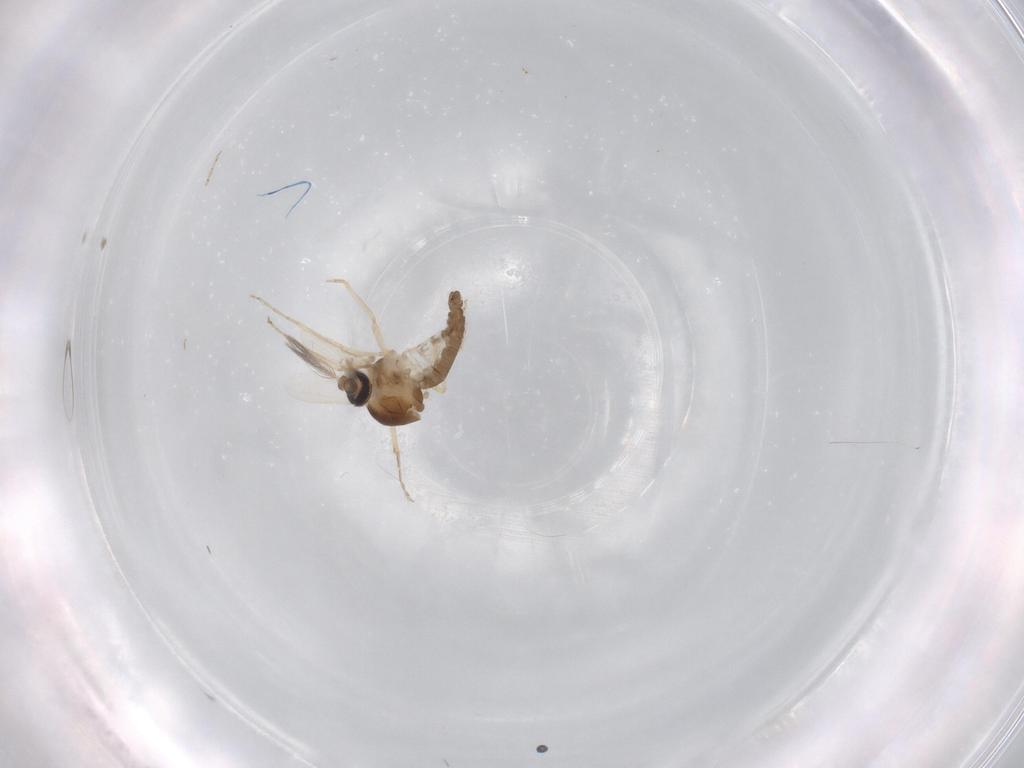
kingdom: Animalia
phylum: Arthropoda
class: Insecta
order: Diptera
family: Ceratopogonidae
